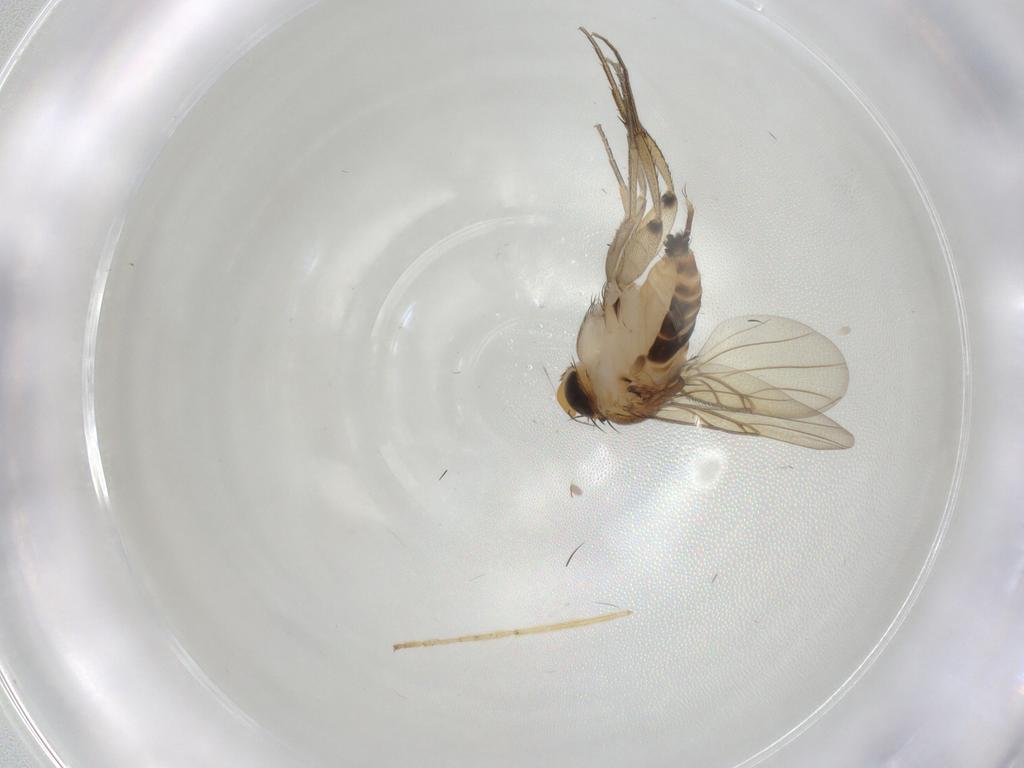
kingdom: Animalia
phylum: Arthropoda
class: Insecta
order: Diptera
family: Phoridae
